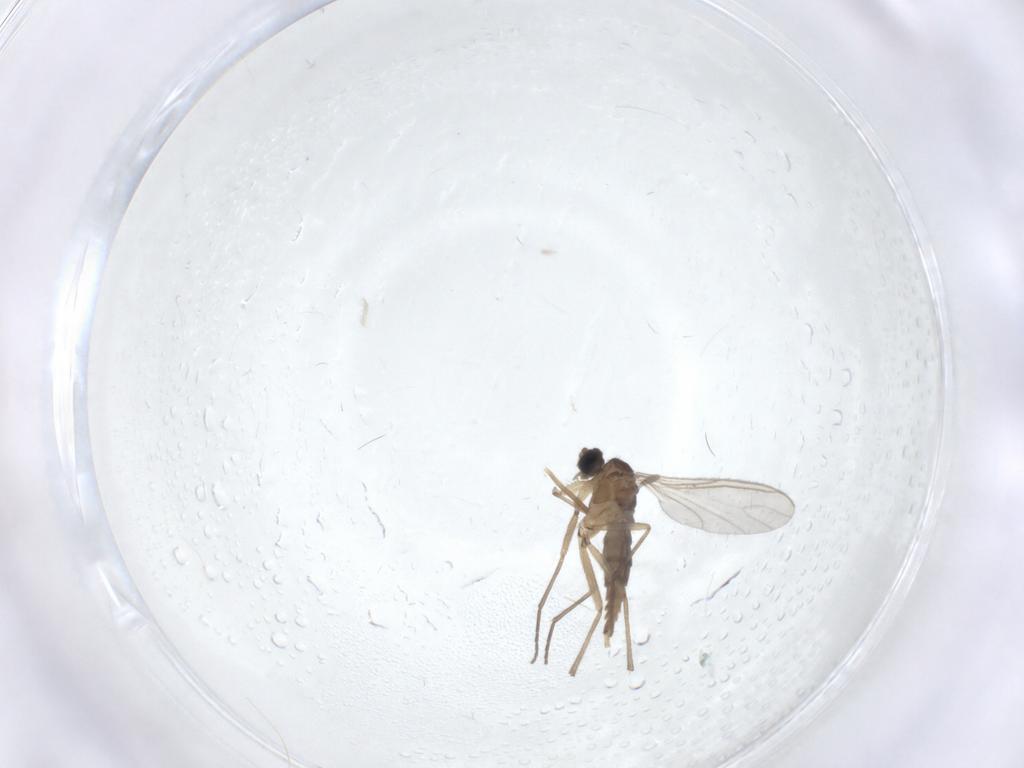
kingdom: Animalia
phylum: Arthropoda
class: Insecta
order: Diptera
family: Sciaridae
